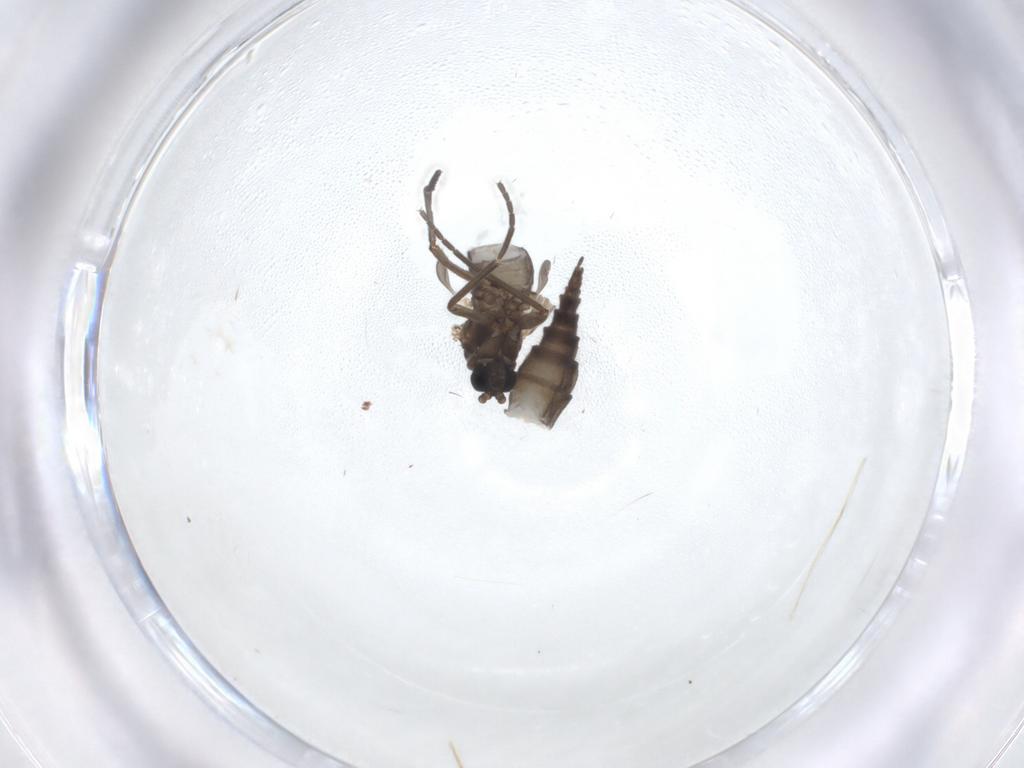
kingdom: Animalia
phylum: Arthropoda
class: Insecta
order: Diptera
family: Sciaridae
